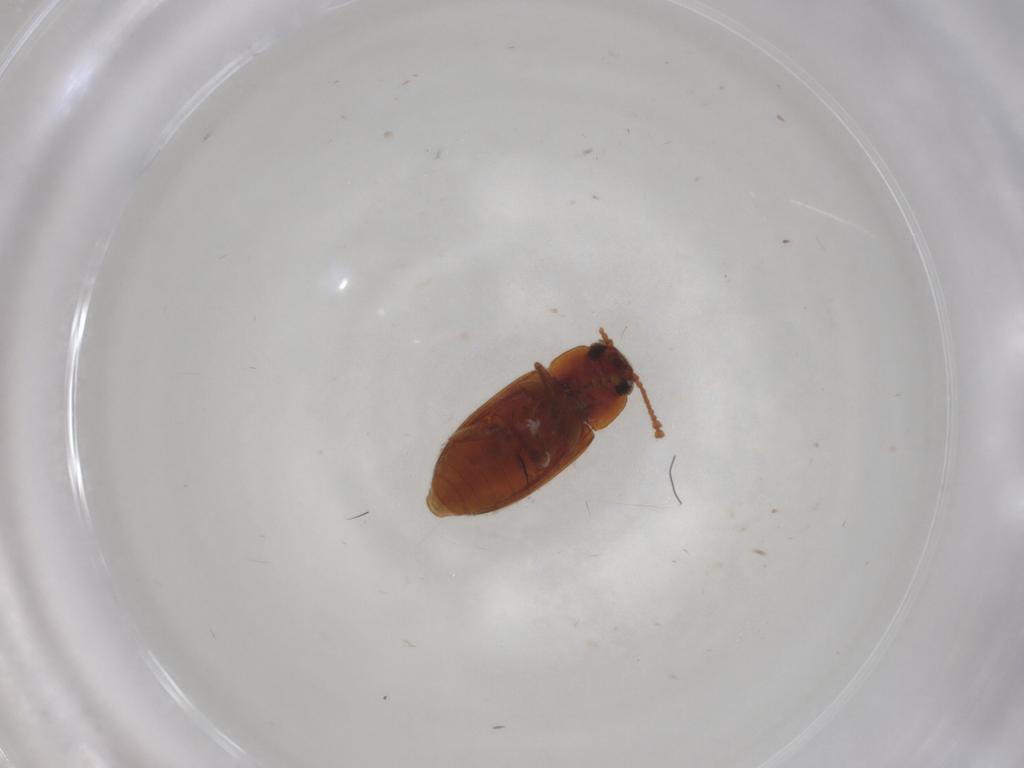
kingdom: Animalia
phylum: Arthropoda
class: Insecta
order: Coleoptera
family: Erotylidae
